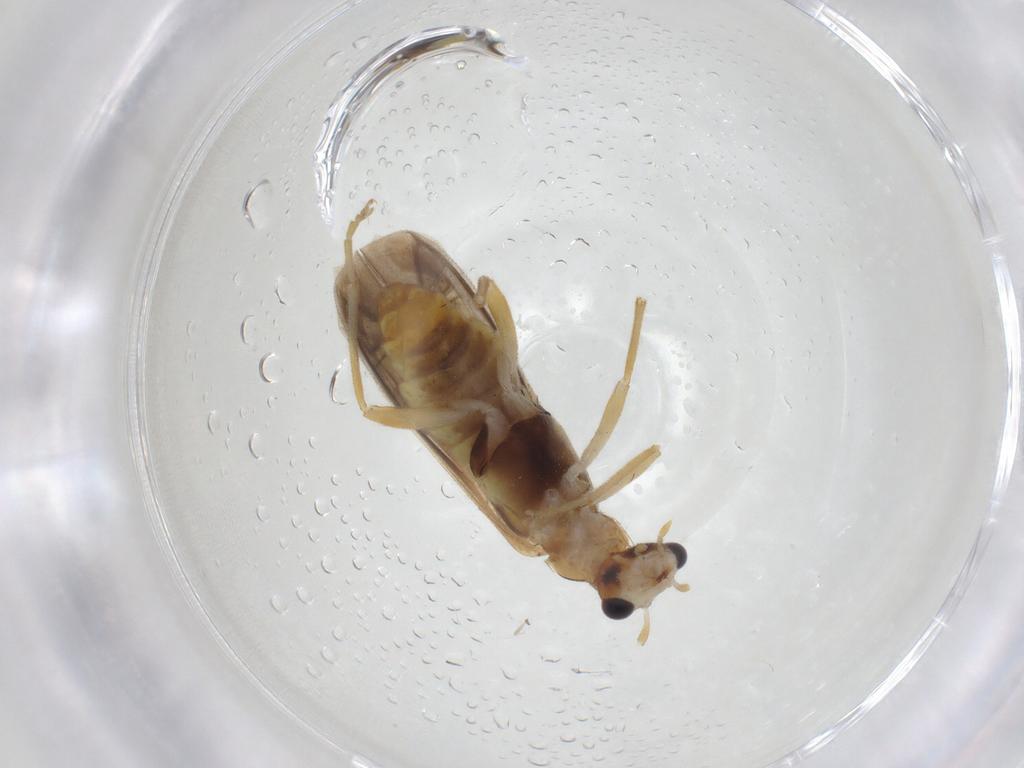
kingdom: Animalia
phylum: Arthropoda
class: Insecta
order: Coleoptera
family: Cantharidae
